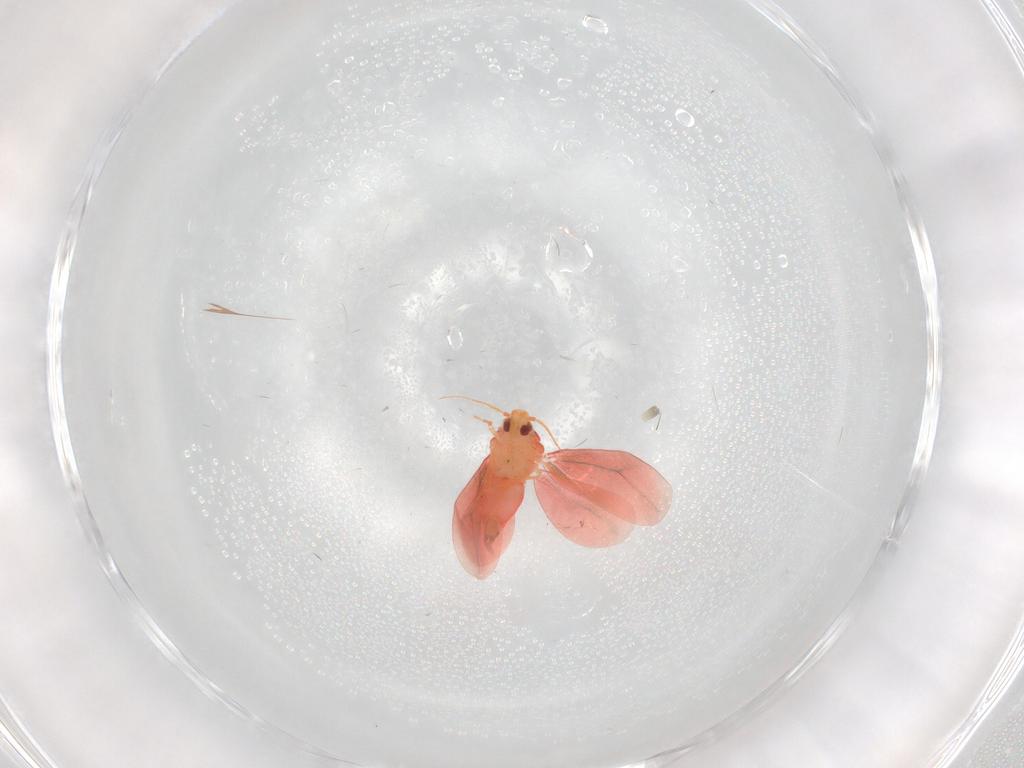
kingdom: Animalia
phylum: Arthropoda
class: Insecta
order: Hemiptera
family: Aleyrodidae
